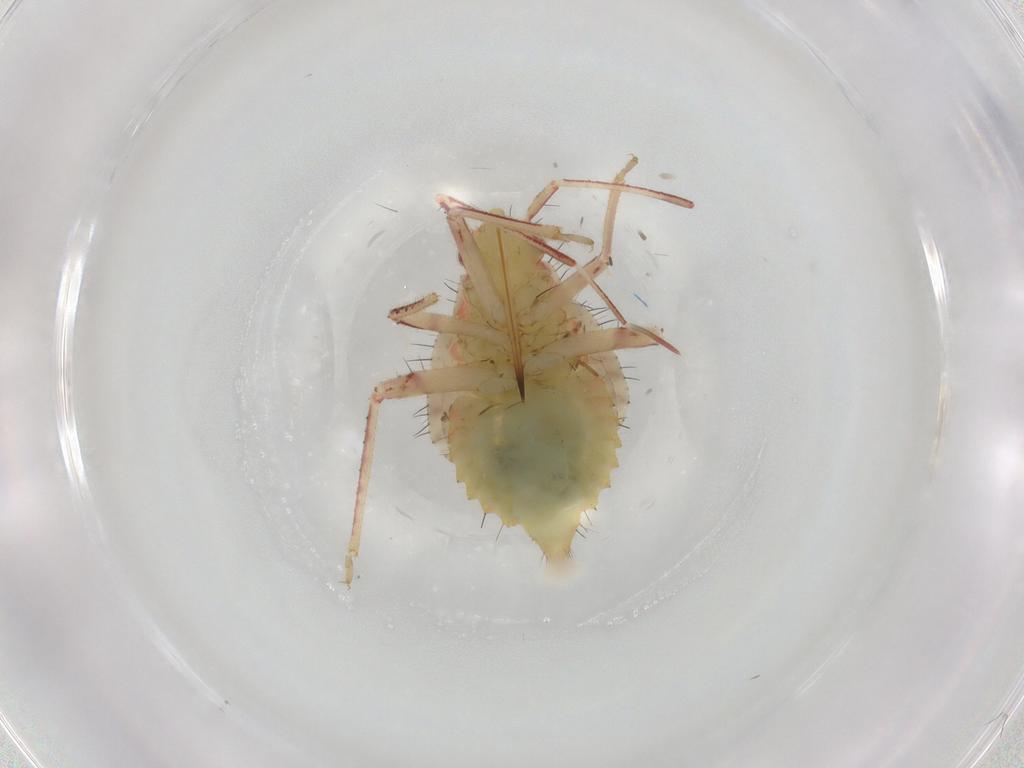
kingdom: Animalia
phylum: Arthropoda
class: Insecta
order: Hemiptera
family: Miridae
